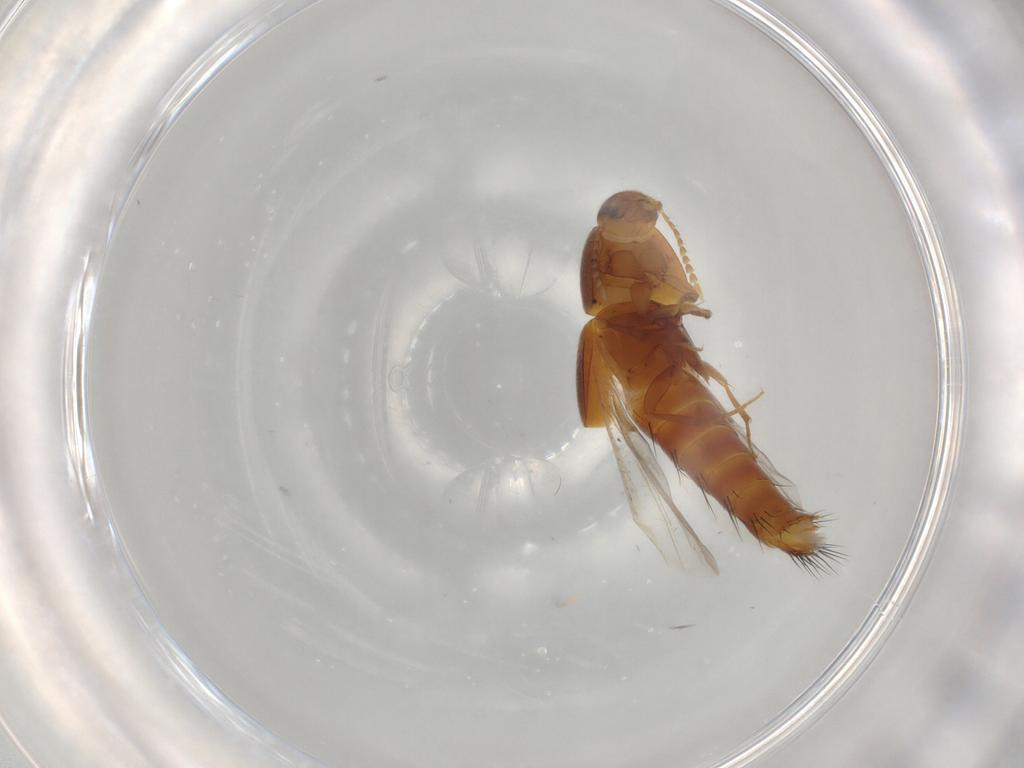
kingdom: Animalia
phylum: Arthropoda
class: Insecta
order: Coleoptera
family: Staphylinidae
